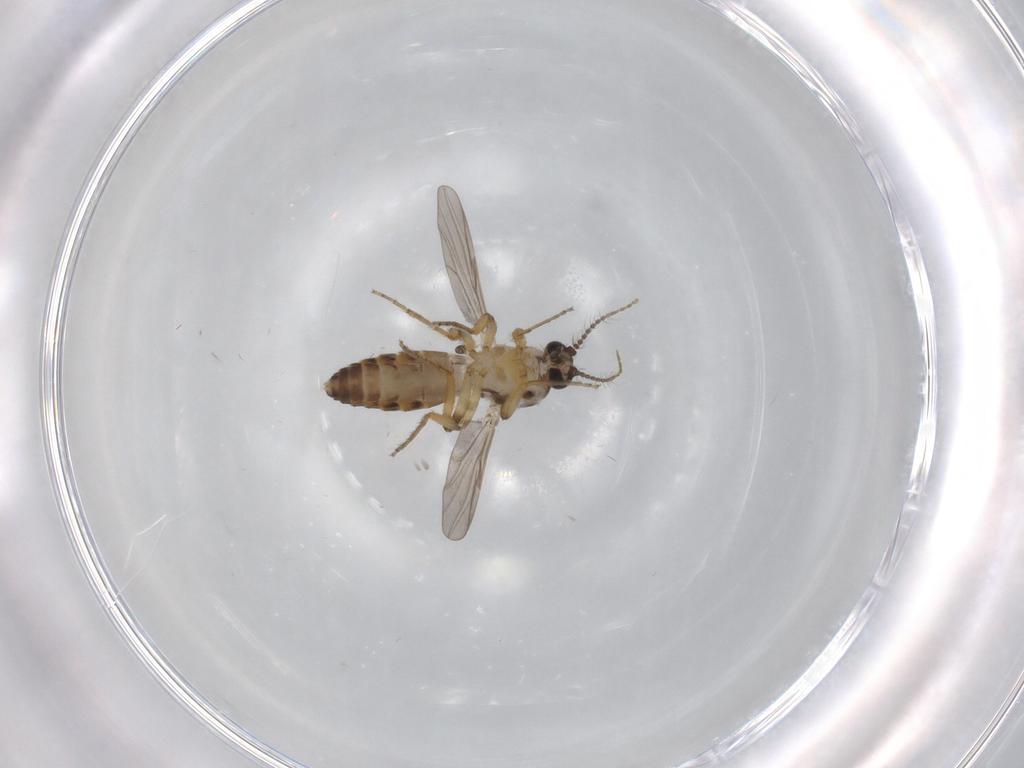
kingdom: Animalia
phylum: Arthropoda
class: Insecta
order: Diptera
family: Ceratopogonidae
